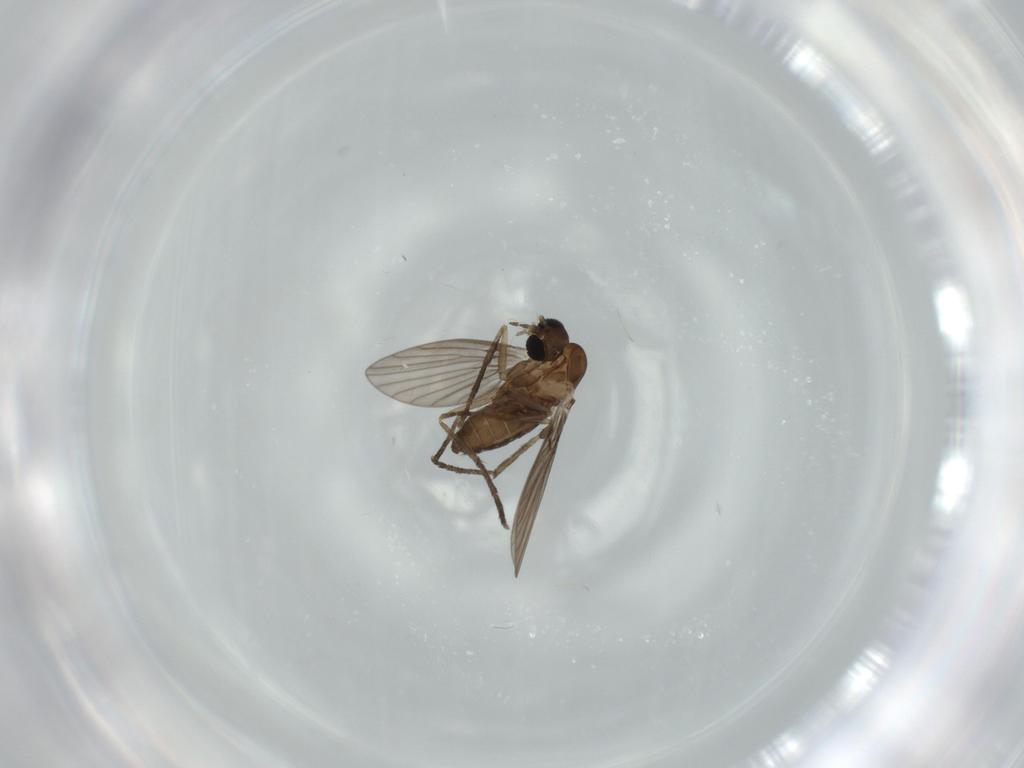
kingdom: Animalia
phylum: Arthropoda
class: Insecta
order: Diptera
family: Psychodidae
